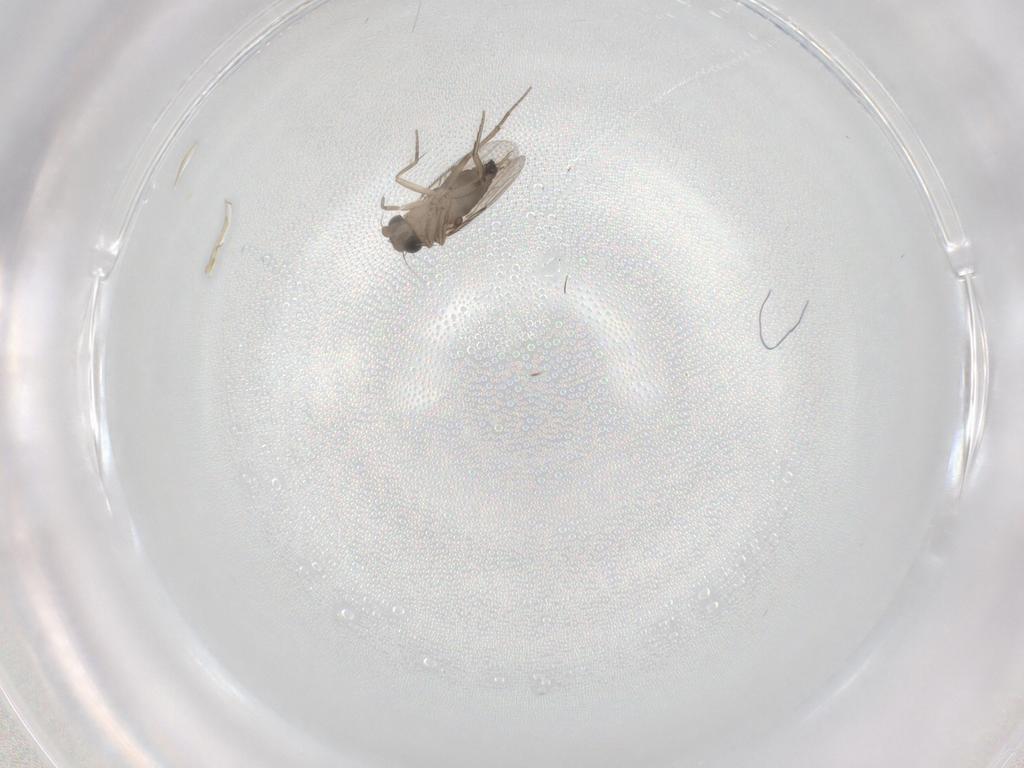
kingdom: Animalia
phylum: Arthropoda
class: Insecta
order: Diptera
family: Phoridae
